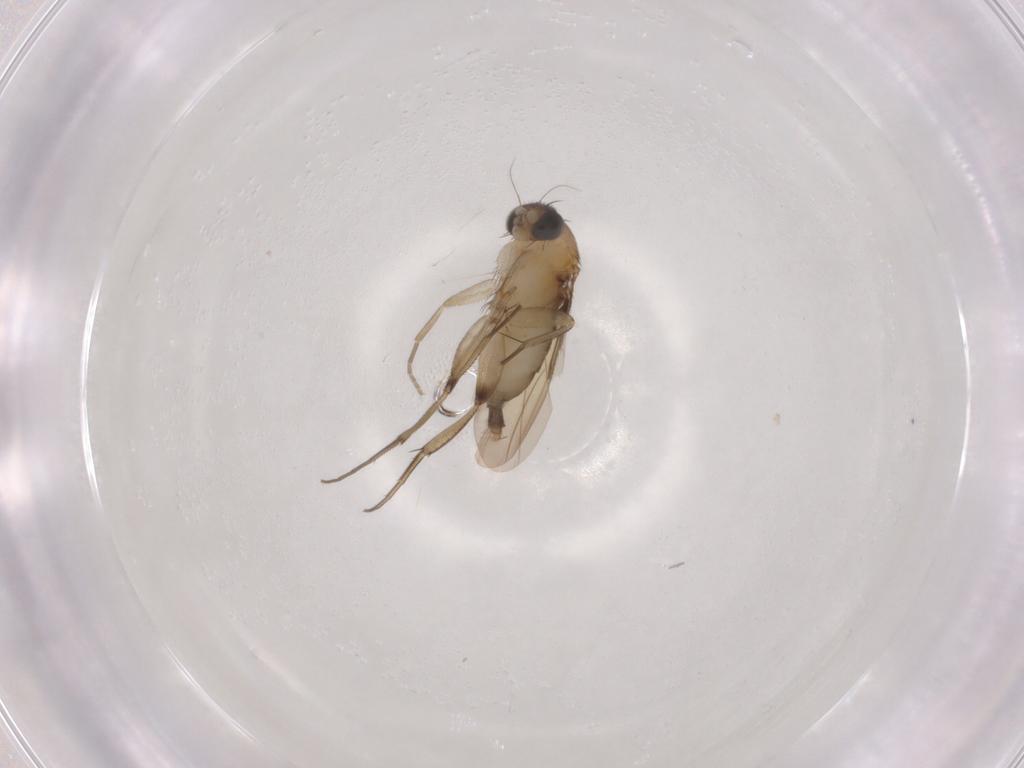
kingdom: Animalia
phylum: Arthropoda
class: Insecta
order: Diptera
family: Phoridae
